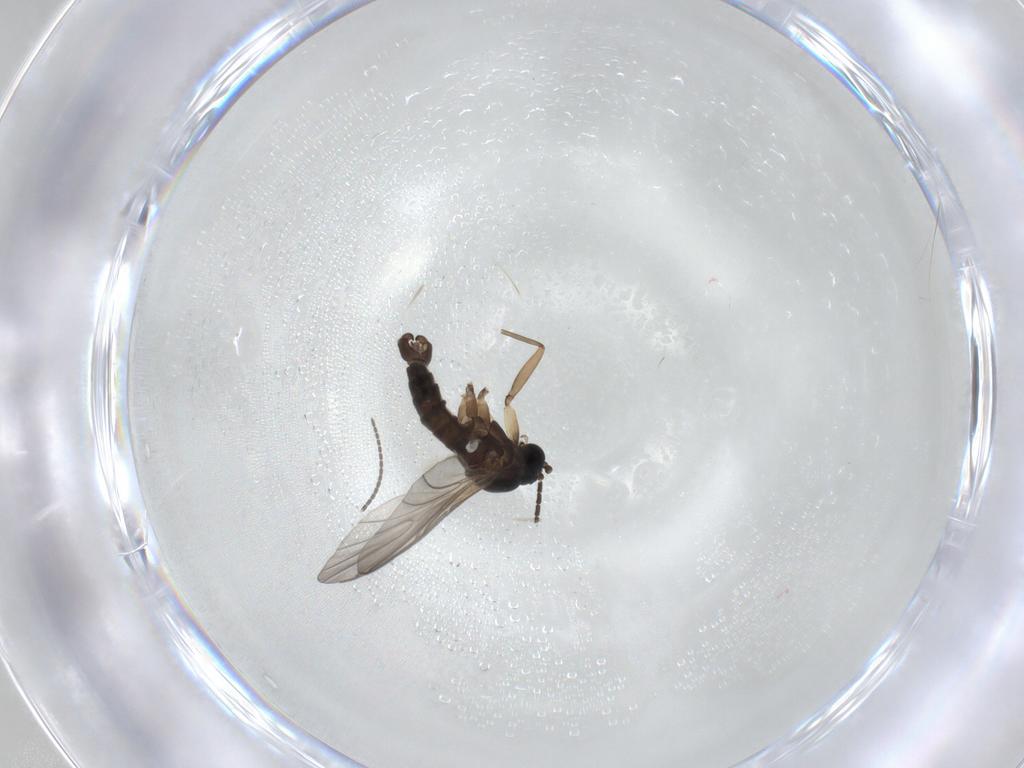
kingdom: Animalia
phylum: Arthropoda
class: Insecta
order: Diptera
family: Sciaridae
